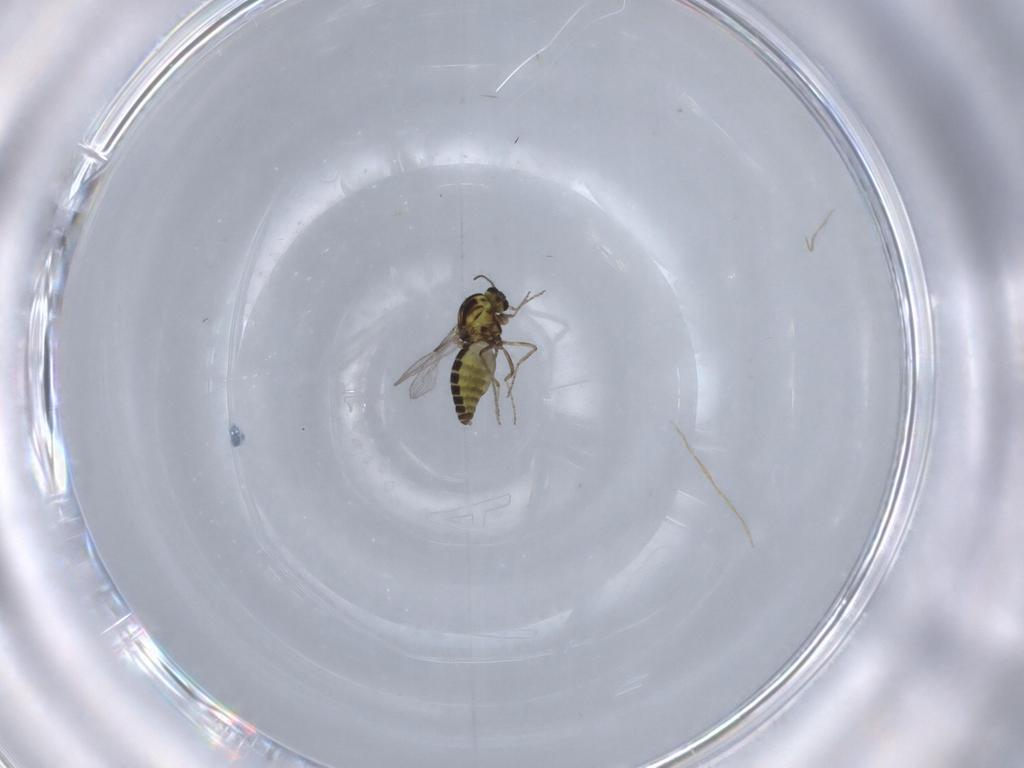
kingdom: Animalia
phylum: Arthropoda
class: Insecta
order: Diptera
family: Ceratopogonidae
